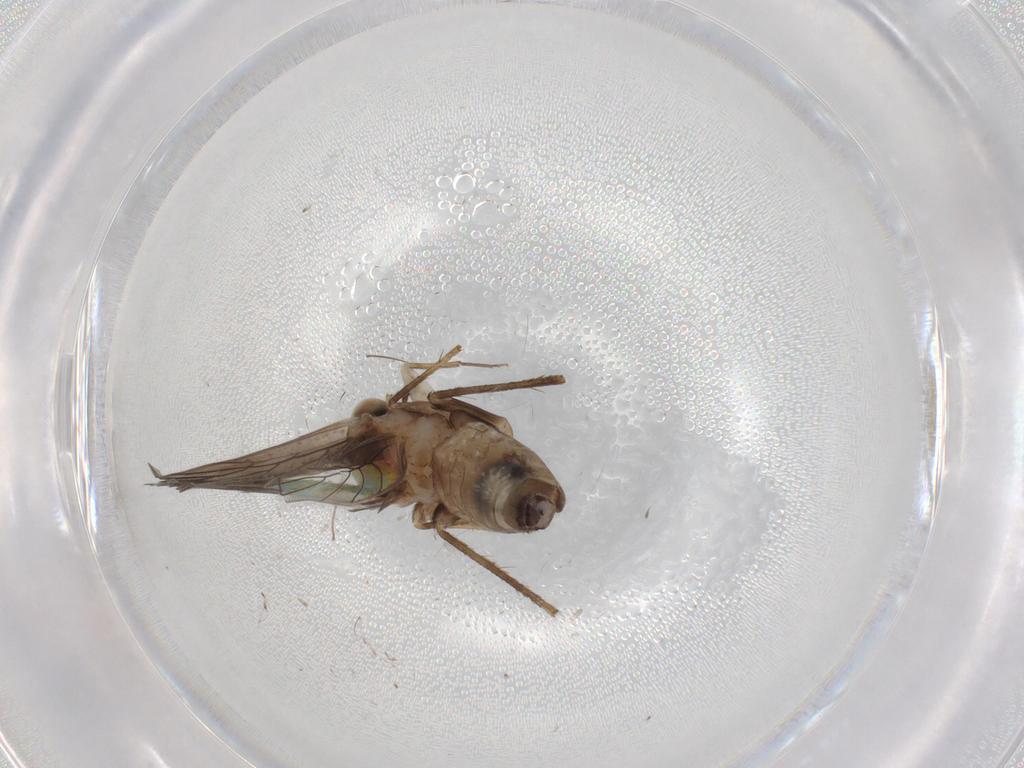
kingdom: Animalia
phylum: Arthropoda
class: Insecta
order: Psocodea
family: Lepidopsocidae
